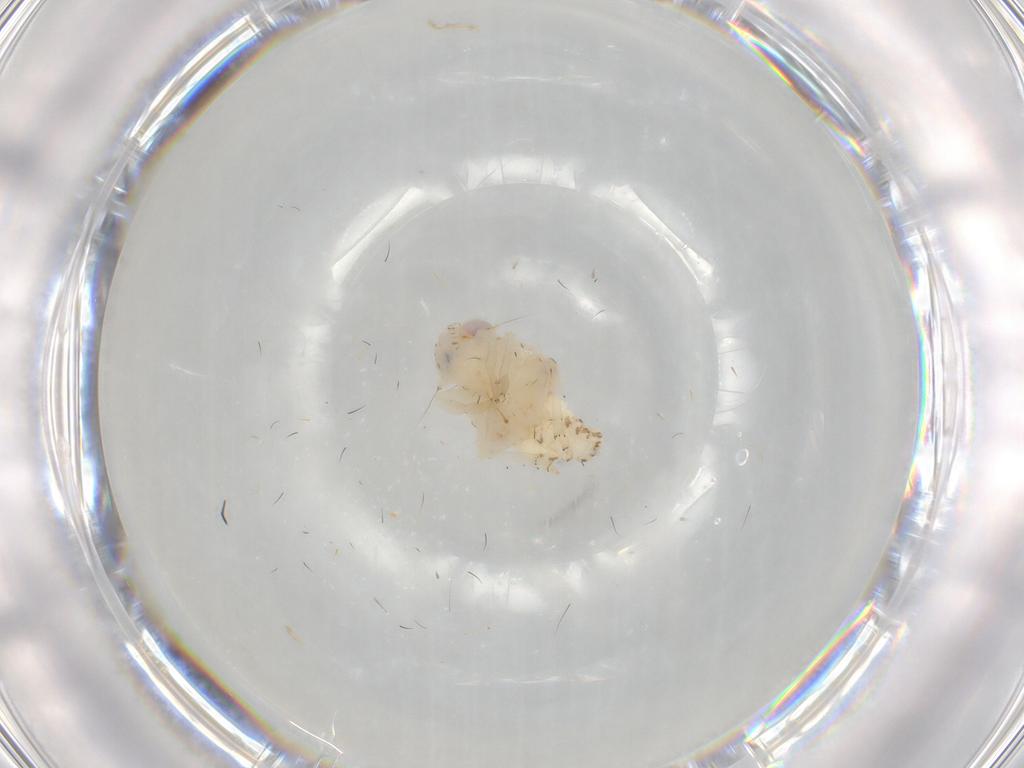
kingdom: Animalia
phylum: Arthropoda
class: Insecta
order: Hemiptera
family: Nogodinidae
